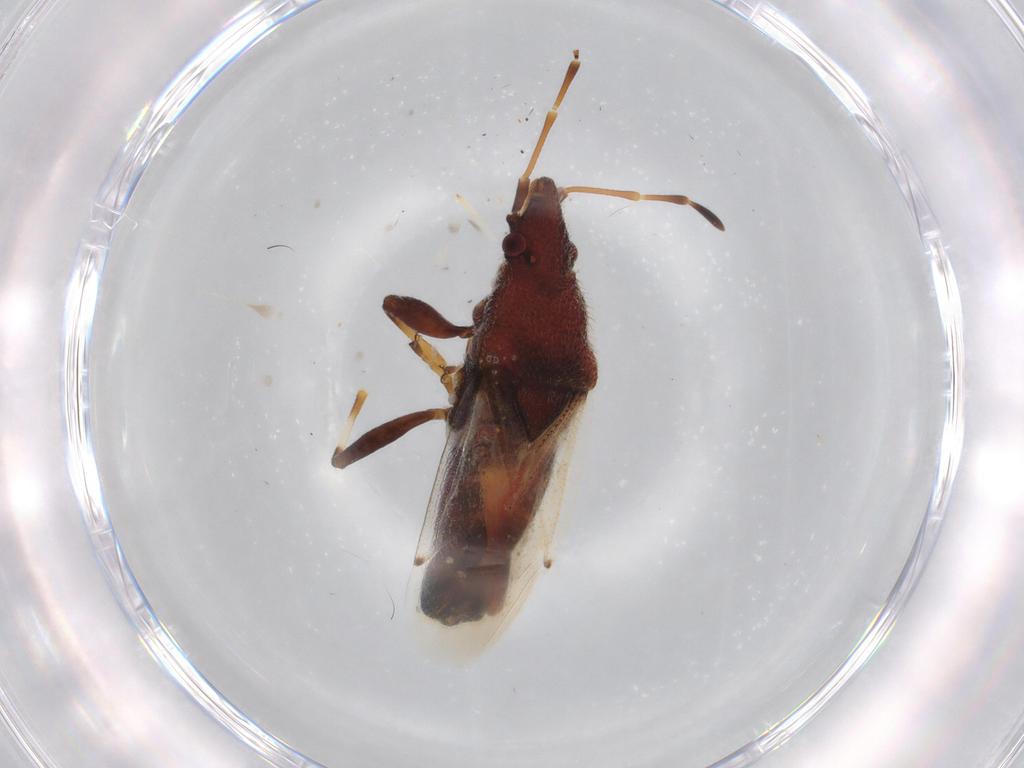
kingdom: Animalia
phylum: Arthropoda
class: Insecta
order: Hemiptera
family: Oxycarenidae
